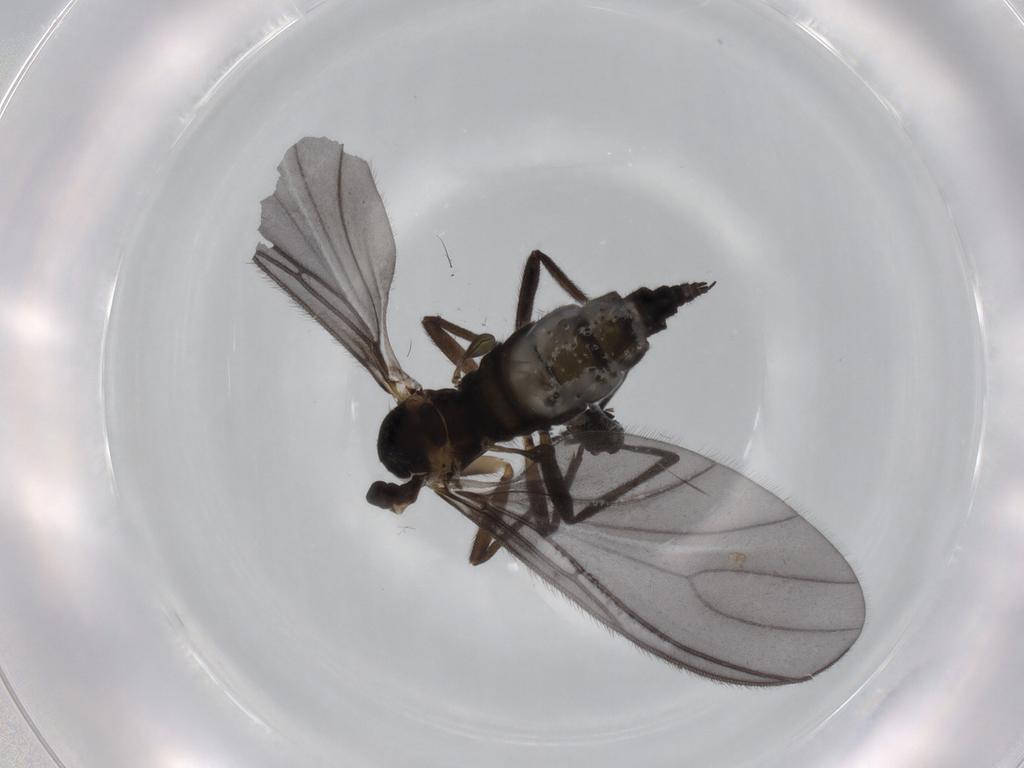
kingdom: Animalia
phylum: Arthropoda
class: Insecta
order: Diptera
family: Sciaridae
